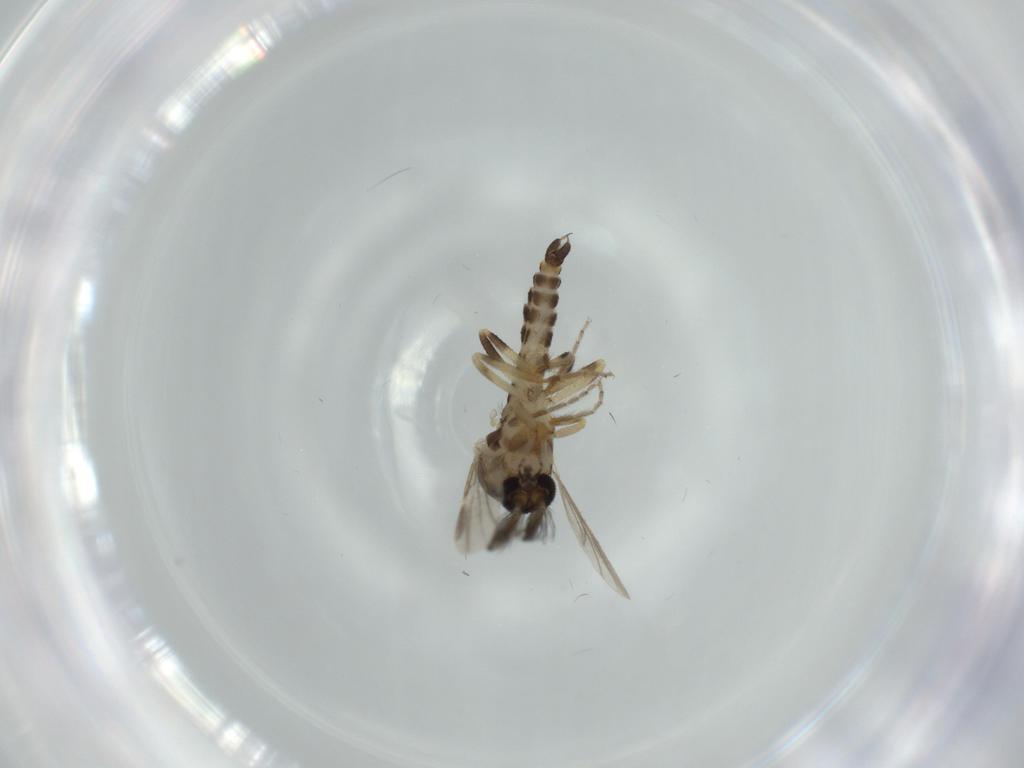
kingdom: Animalia
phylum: Arthropoda
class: Insecta
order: Diptera
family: Ceratopogonidae
